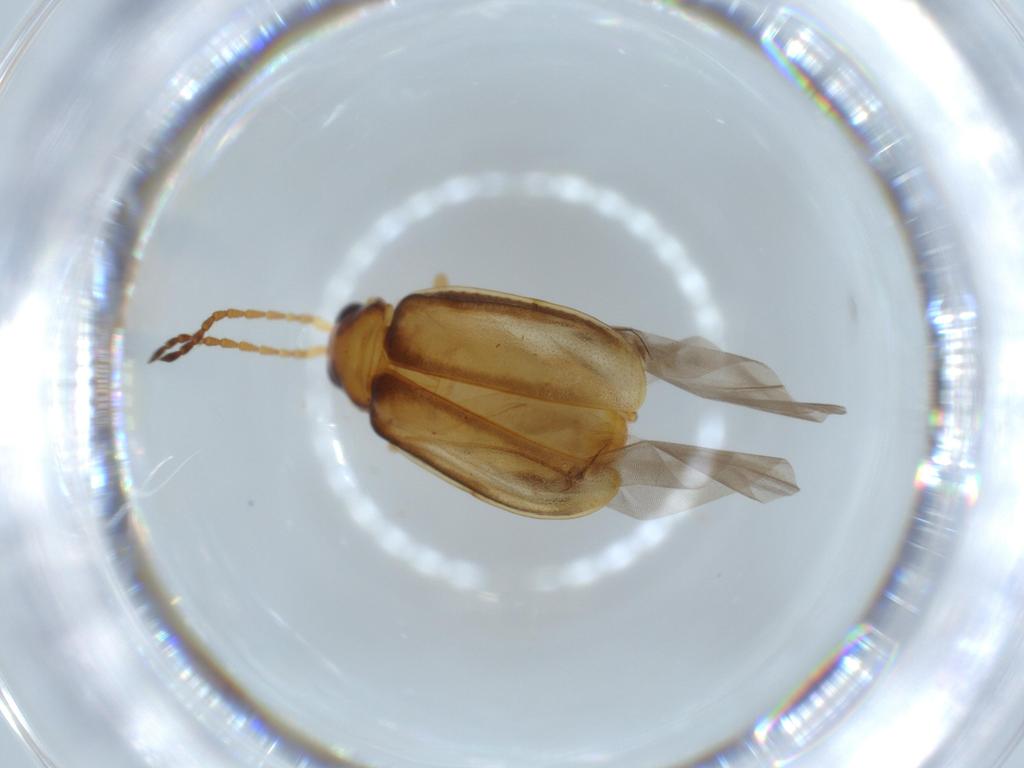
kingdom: Animalia
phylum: Arthropoda
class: Insecta
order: Coleoptera
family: Chrysomelidae
